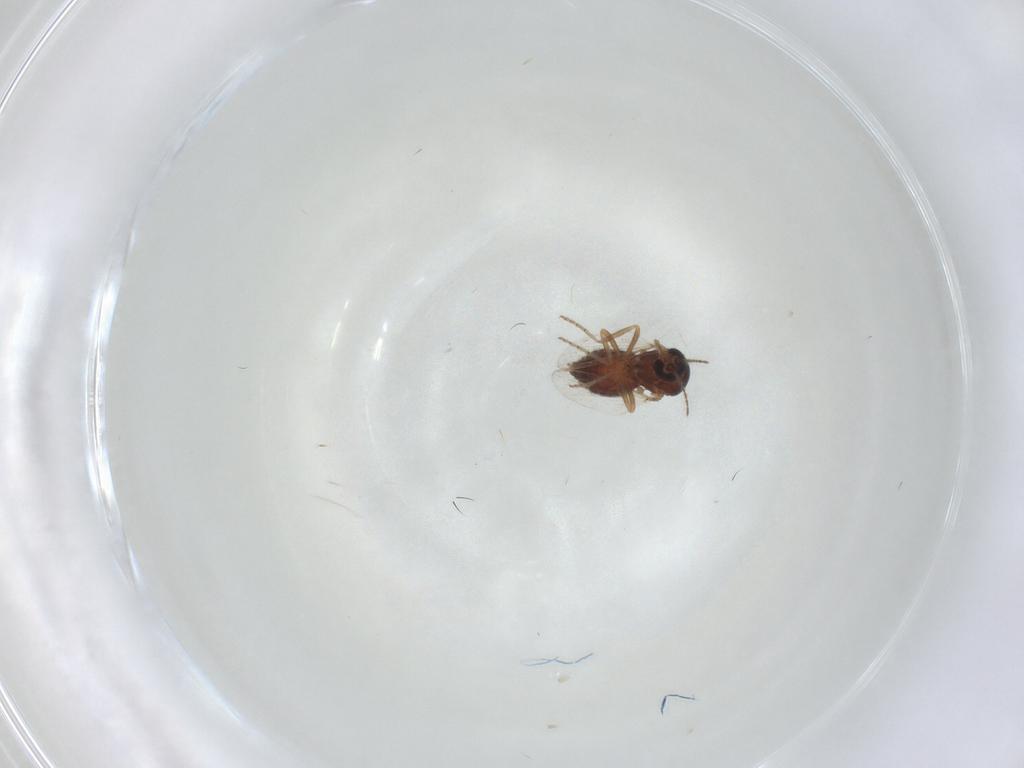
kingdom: Animalia
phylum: Arthropoda
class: Insecta
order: Diptera
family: Ceratopogonidae
